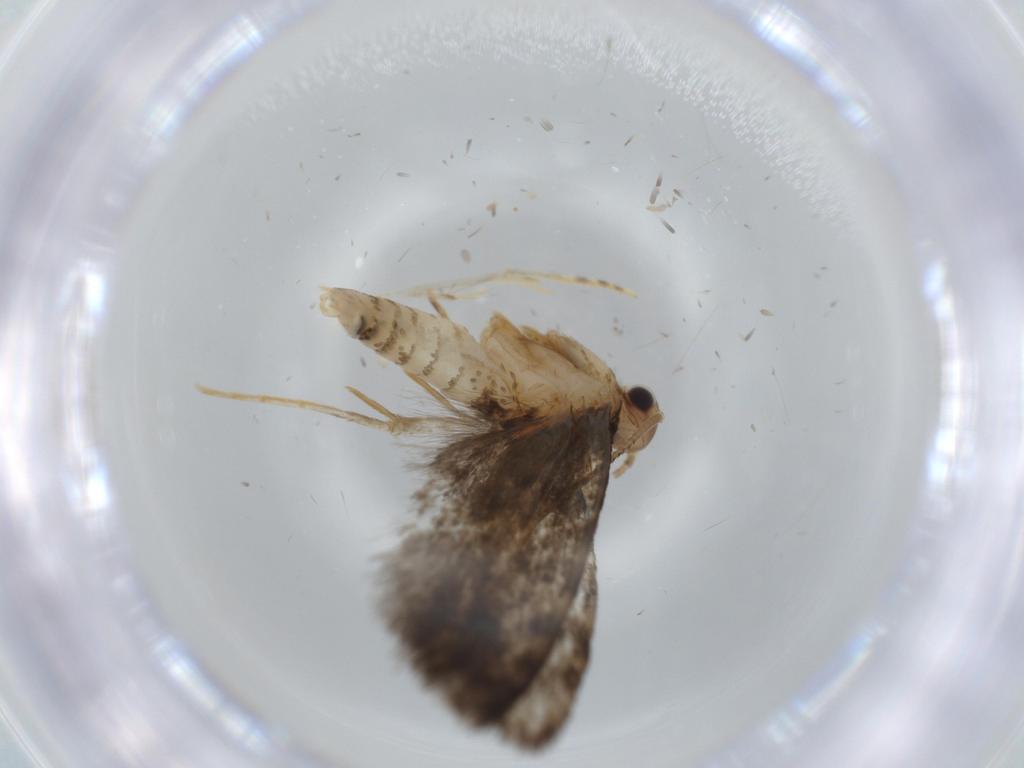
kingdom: Animalia
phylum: Arthropoda
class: Insecta
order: Lepidoptera
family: Tineidae
